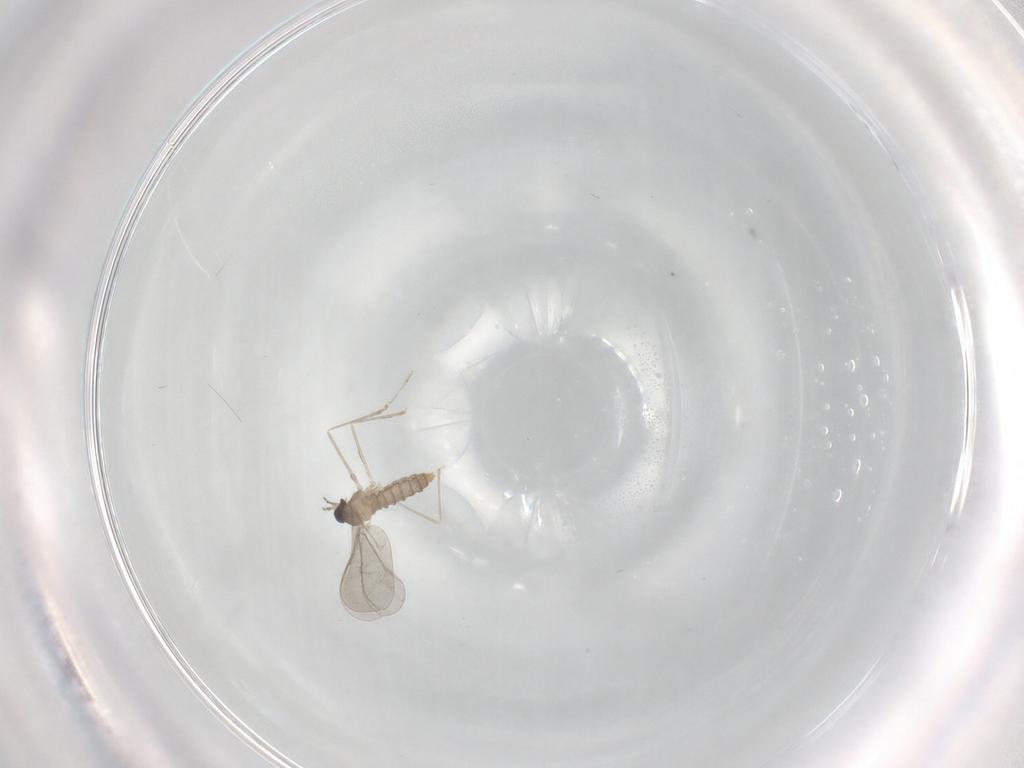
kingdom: Animalia
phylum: Arthropoda
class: Insecta
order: Diptera
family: Cecidomyiidae
